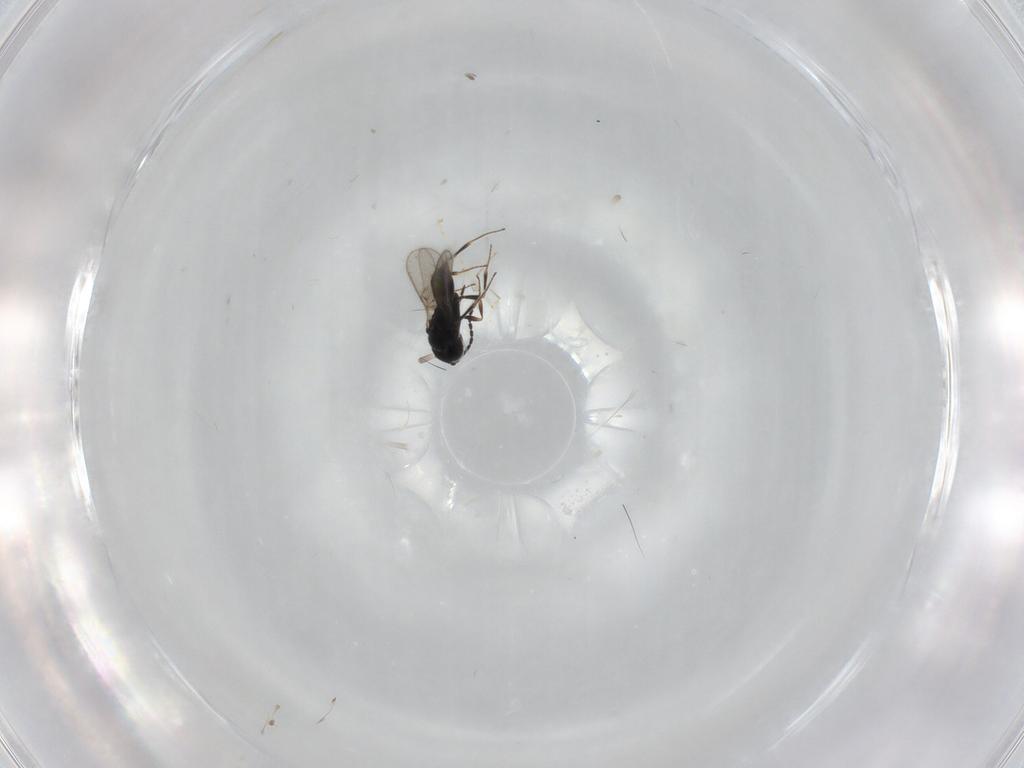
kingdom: Animalia
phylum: Arthropoda
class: Insecta
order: Hymenoptera
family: Scelionidae
